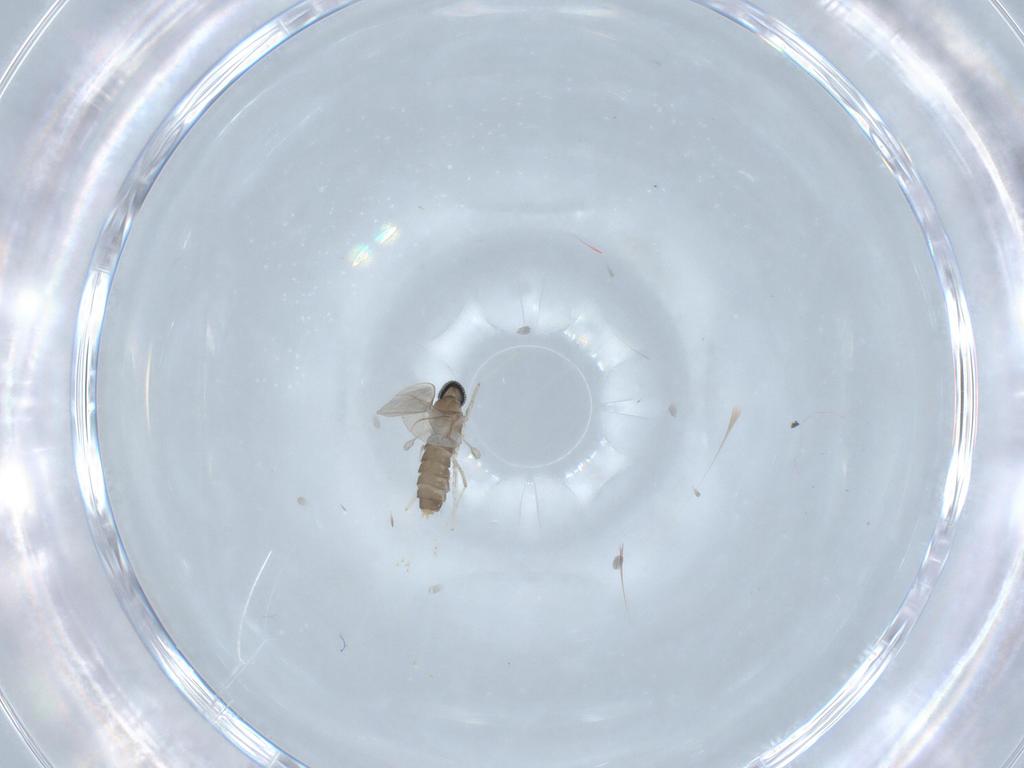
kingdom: Animalia
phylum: Arthropoda
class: Insecta
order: Diptera
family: Cecidomyiidae
